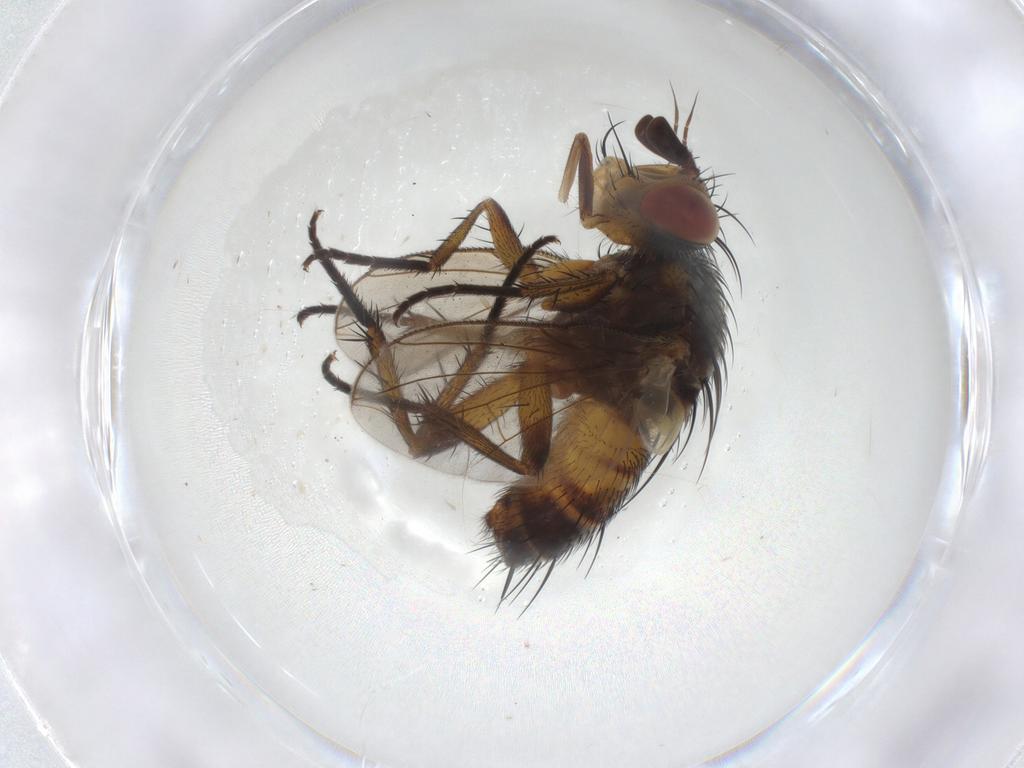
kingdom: Animalia
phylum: Arthropoda
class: Insecta
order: Diptera
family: Tachinidae
